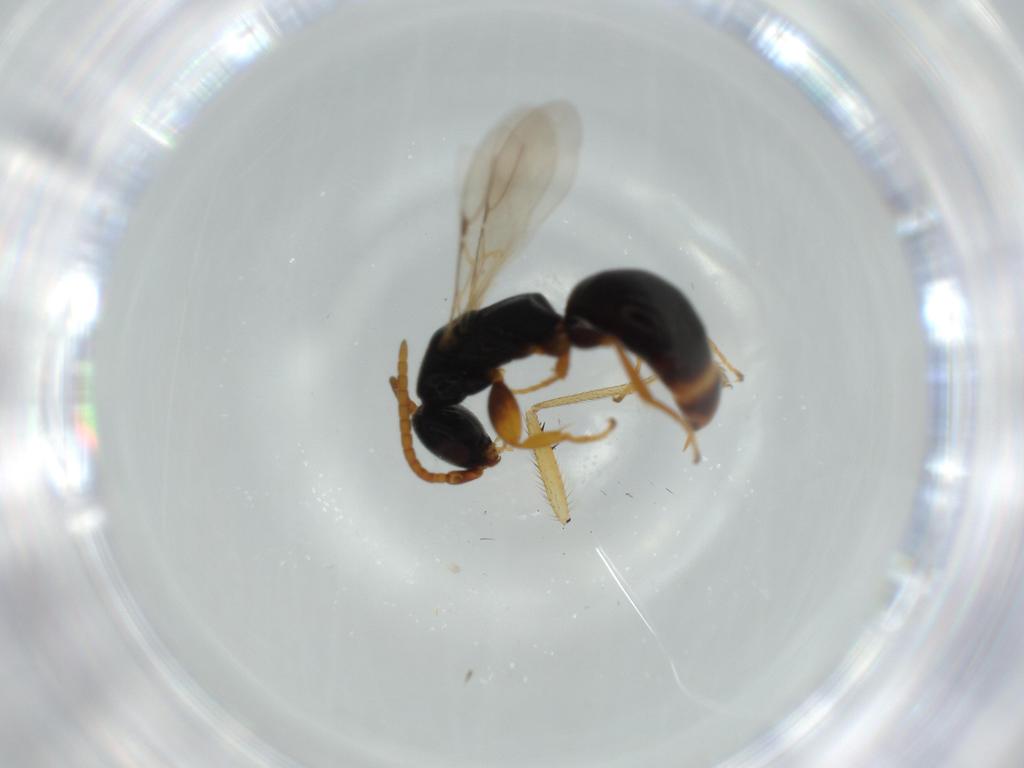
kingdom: Animalia
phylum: Arthropoda
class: Insecta
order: Hymenoptera
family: Bethylidae
